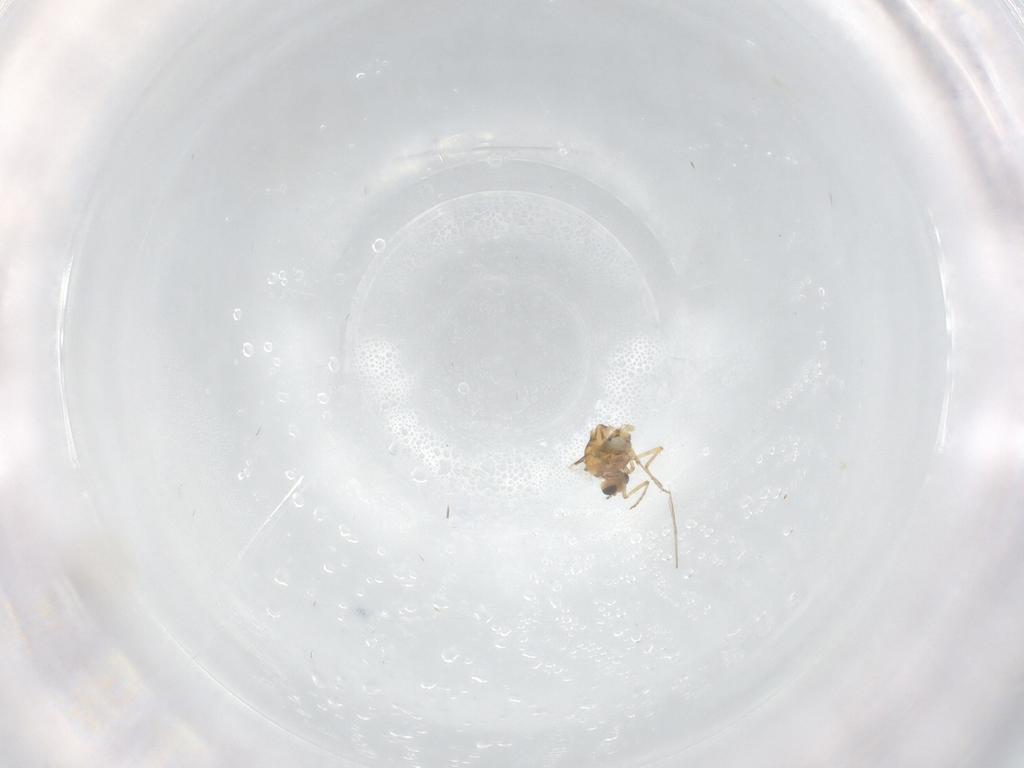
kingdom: Animalia
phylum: Arthropoda
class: Insecta
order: Diptera
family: Ceratopogonidae
